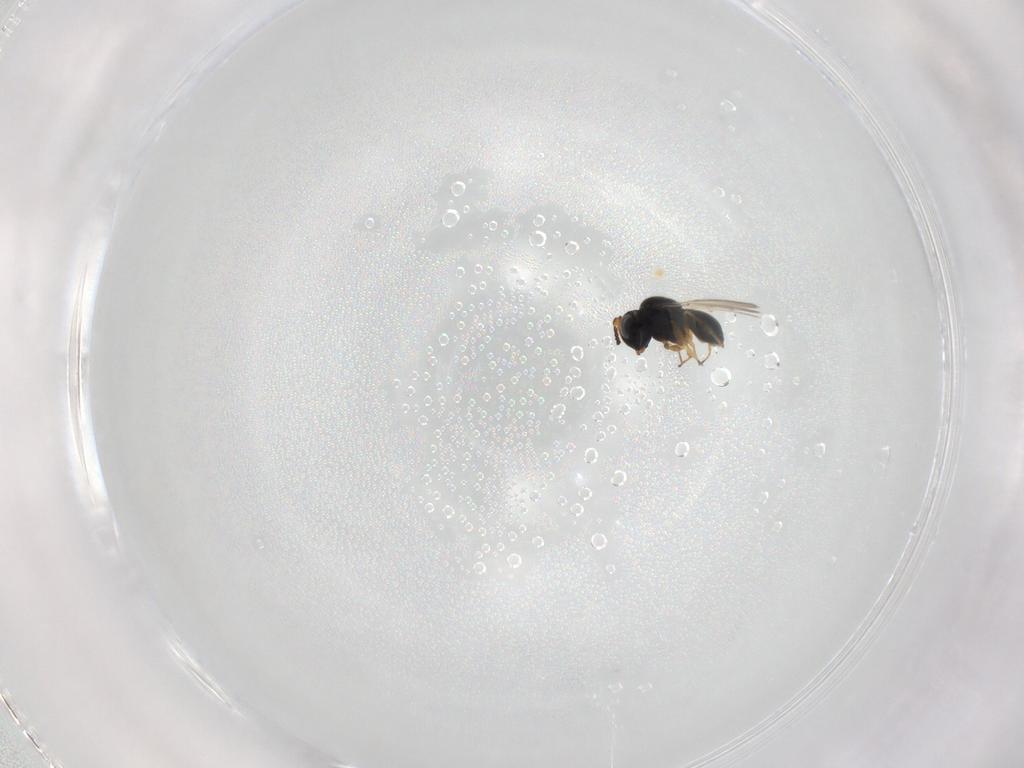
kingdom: Animalia
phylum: Arthropoda
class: Insecta
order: Hymenoptera
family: Scelionidae
